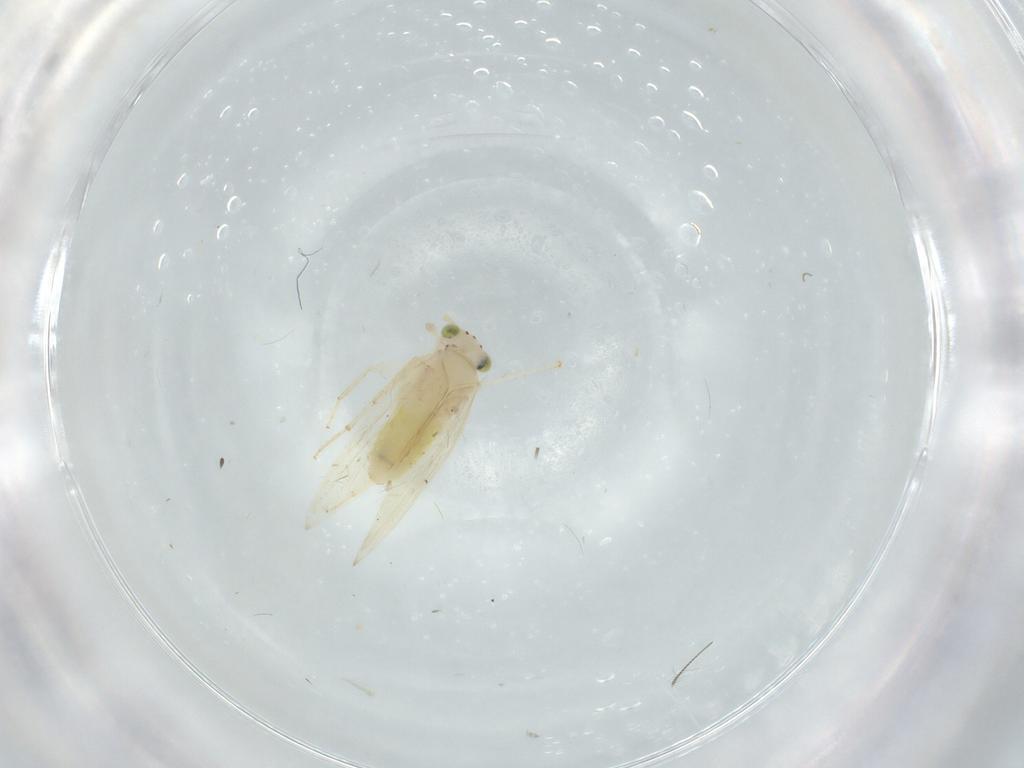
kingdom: Animalia
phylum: Arthropoda
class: Insecta
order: Psocodea
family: Lepidopsocidae
